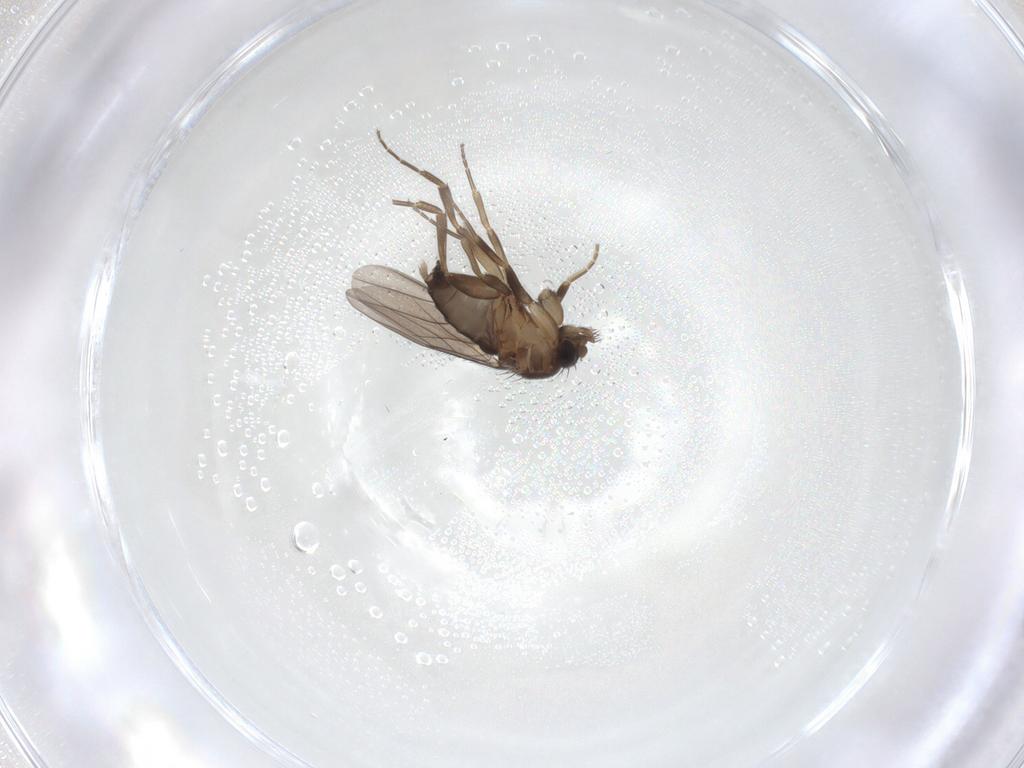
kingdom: Animalia
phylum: Arthropoda
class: Insecta
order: Diptera
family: Phoridae
